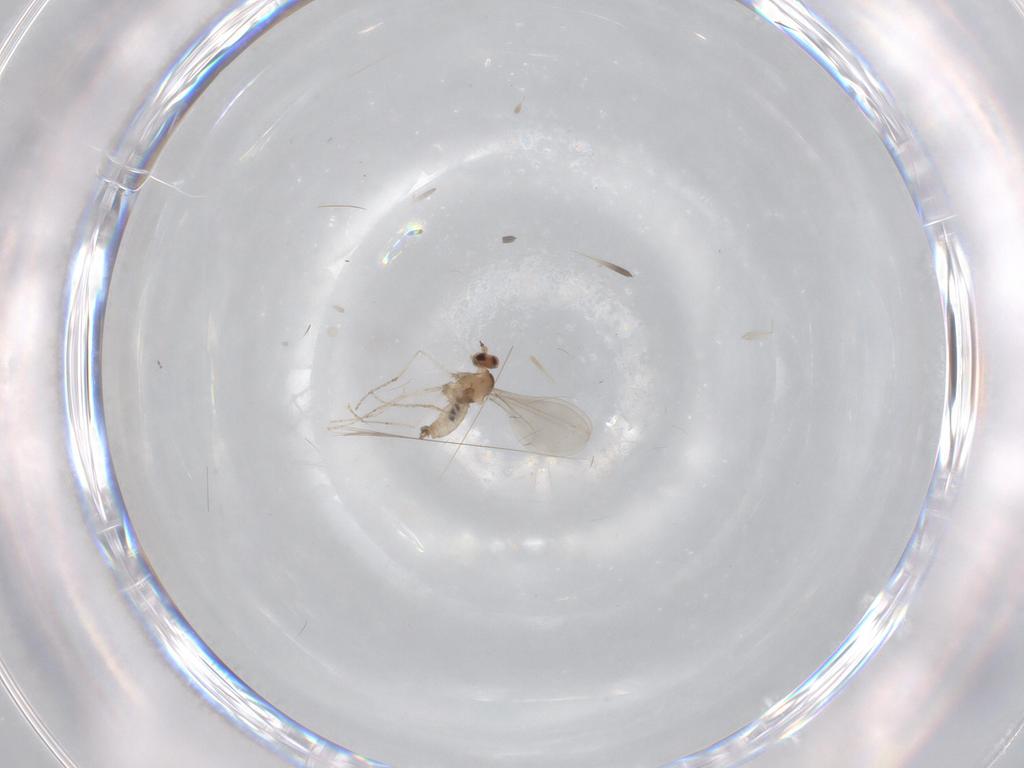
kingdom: Animalia
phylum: Arthropoda
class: Insecta
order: Diptera
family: Cecidomyiidae
